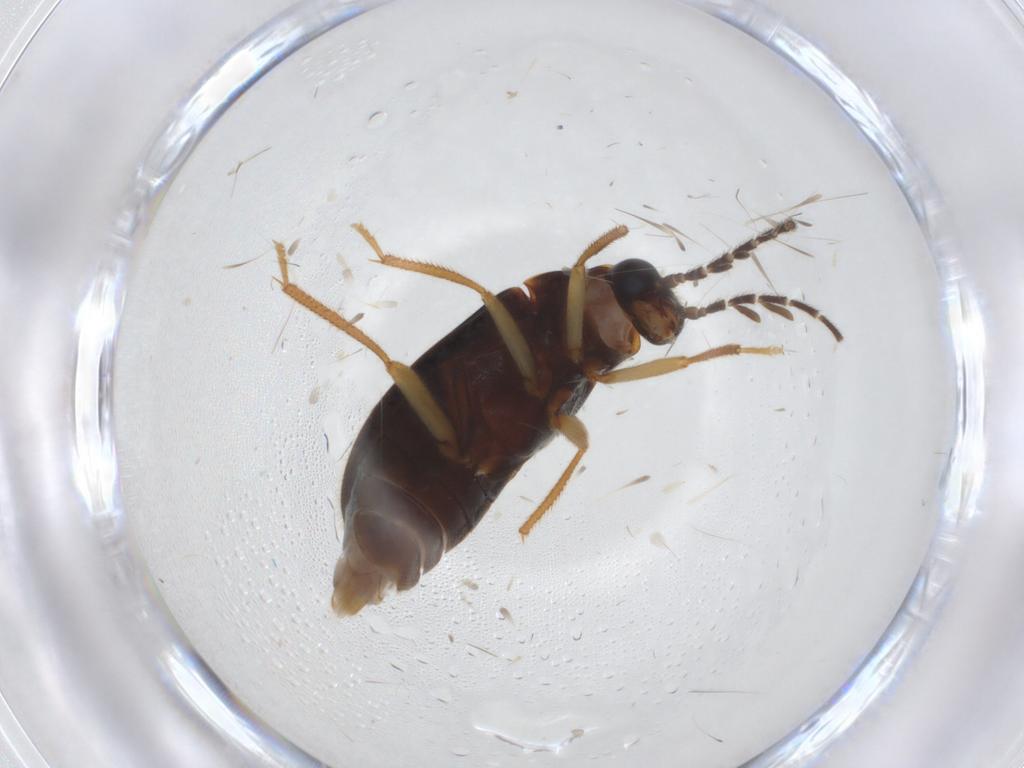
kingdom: Animalia
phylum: Arthropoda
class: Insecta
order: Coleoptera
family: Ptilodactylidae
